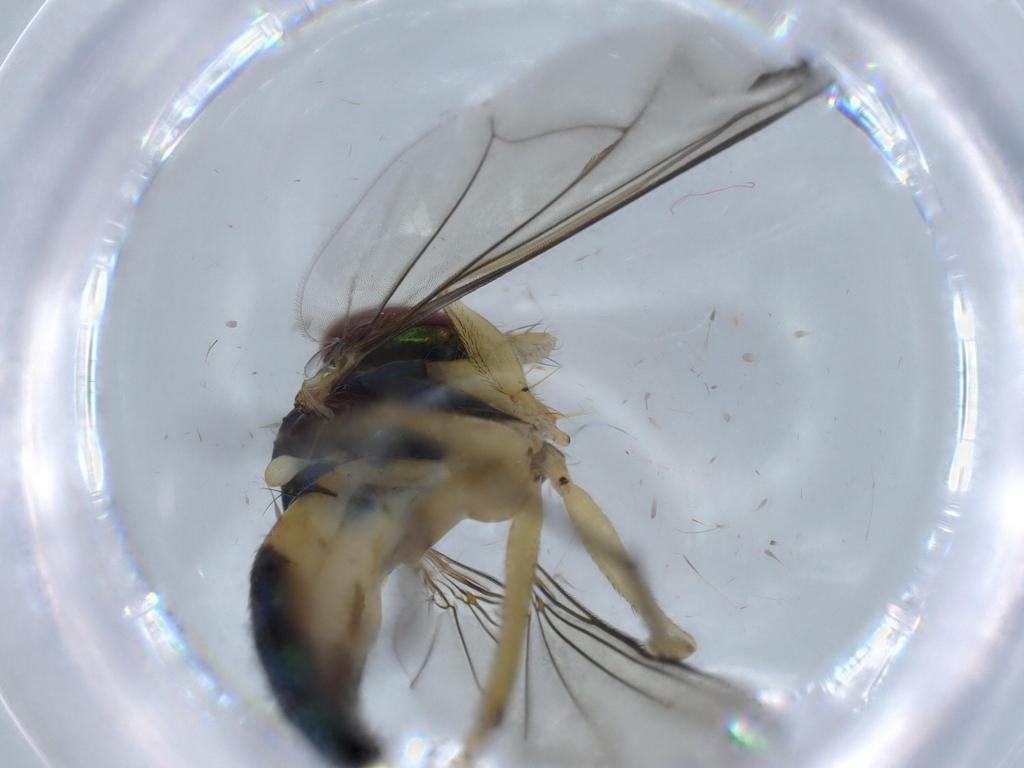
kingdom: Animalia
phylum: Arthropoda
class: Insecta
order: Diptera
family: Dolichopodidae
